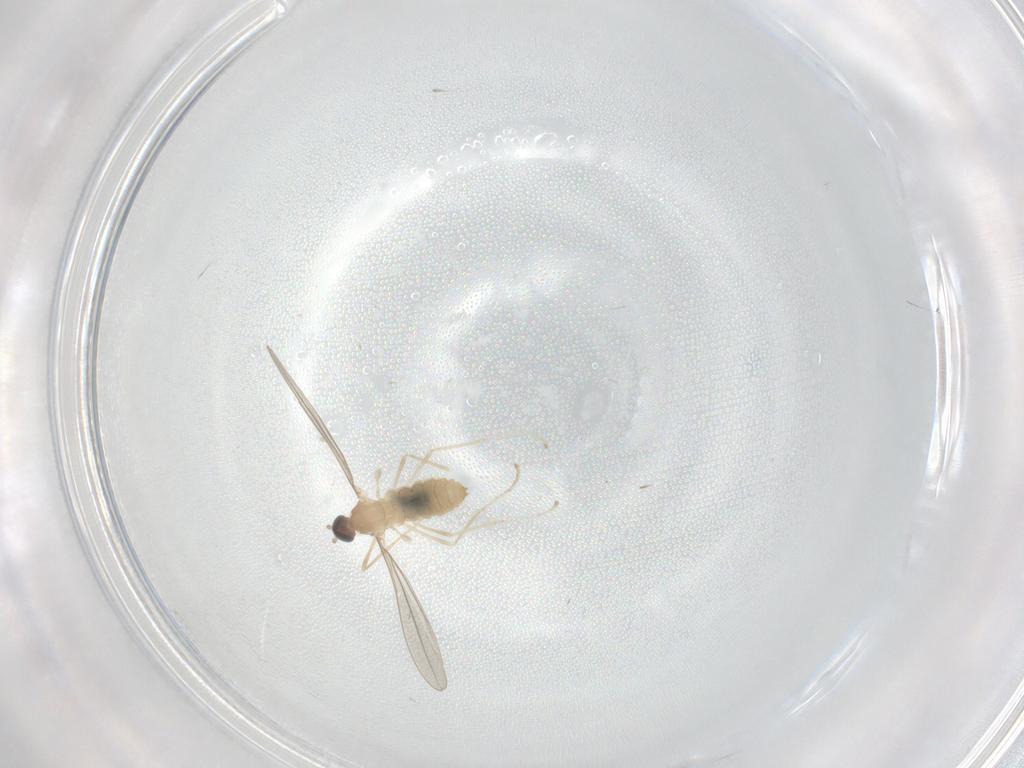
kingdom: Animalia
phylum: Arthropoda
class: Insecta
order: Diptera
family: Cecidomyiidae
